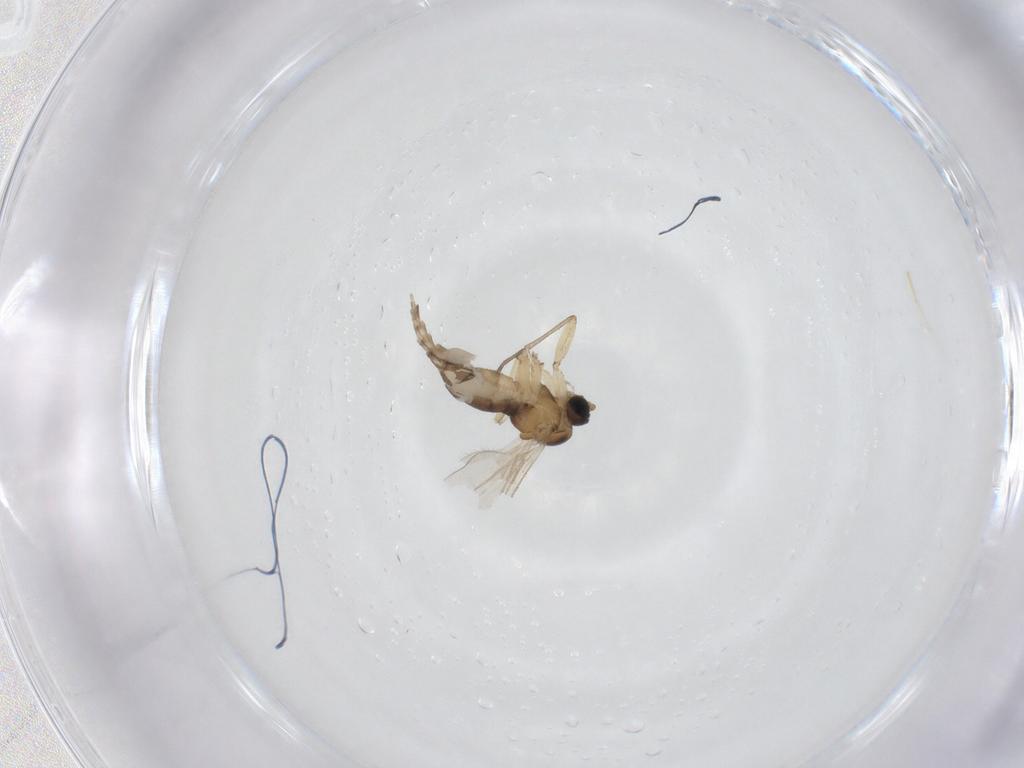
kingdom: Animalia
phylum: Arthropoda
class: Insecta
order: Diptera
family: Sciaridae
